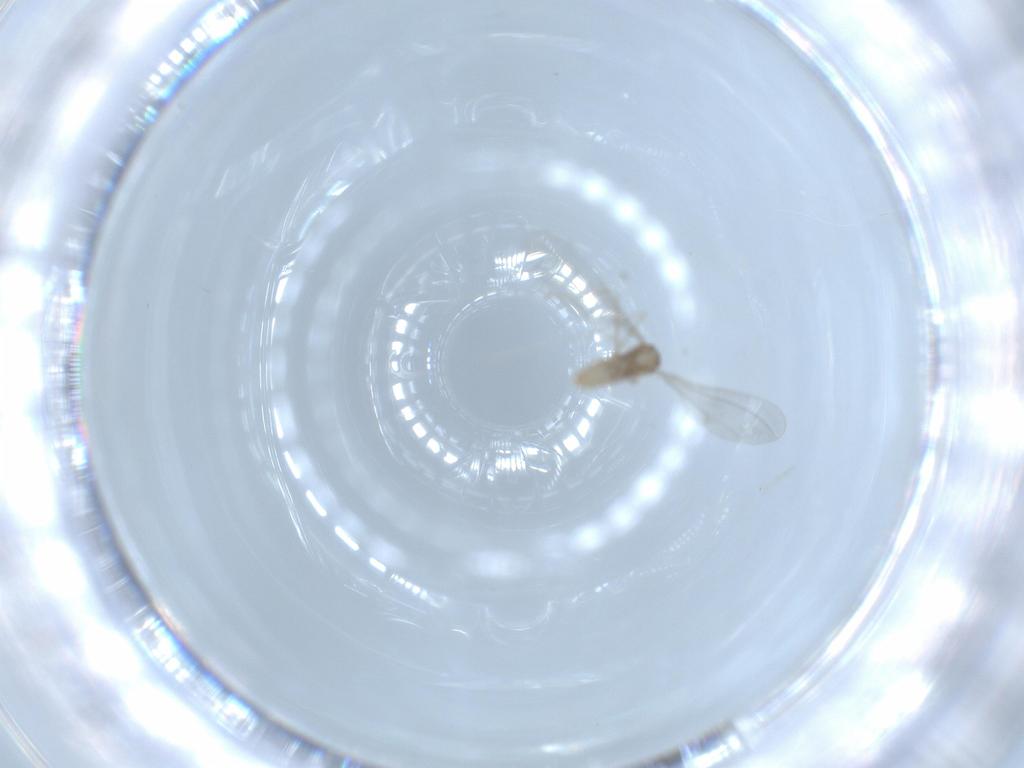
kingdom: Animalia
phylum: Arthropoda
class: Insecta
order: Diptera
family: Cecidomyiidae
